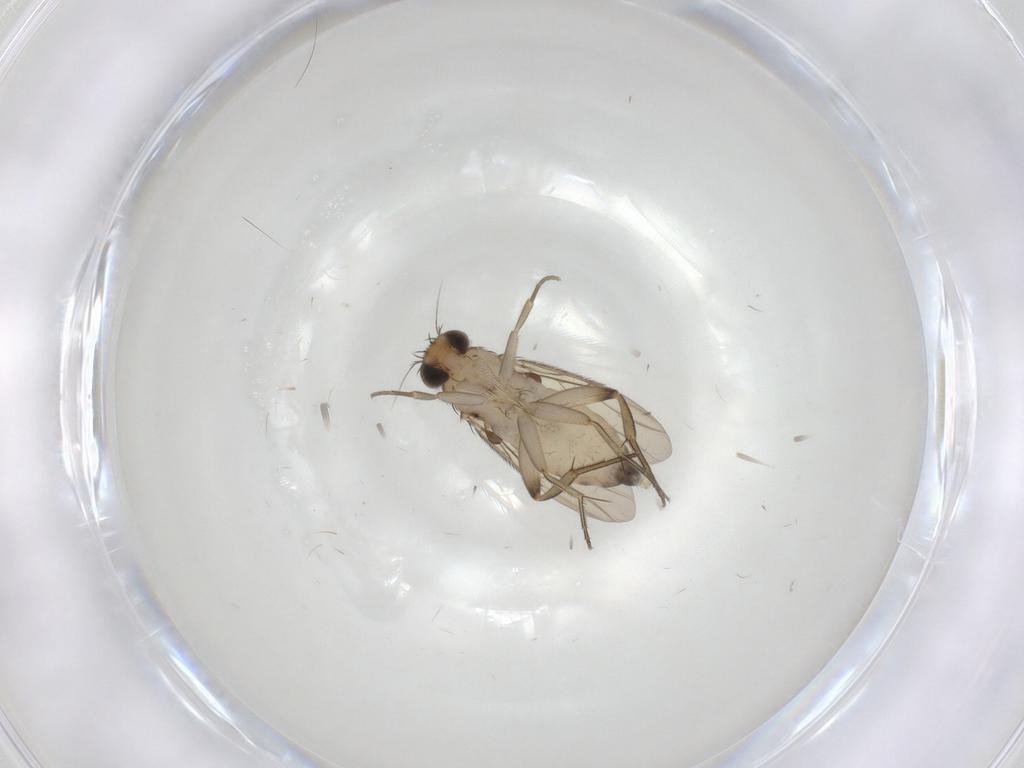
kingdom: Animalia
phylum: Arthropoda
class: Insecta
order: Diptera
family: Phoridae
